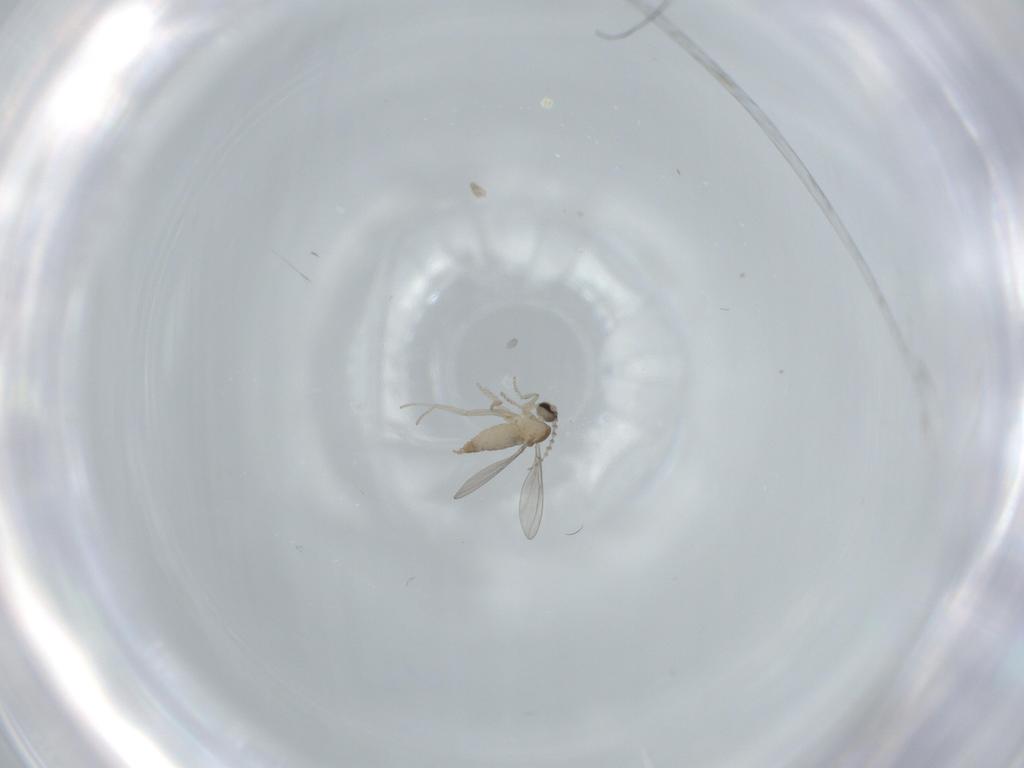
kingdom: Animalia
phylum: Arthropoda
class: Insecta
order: Diptera
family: Cecidomyiidae
